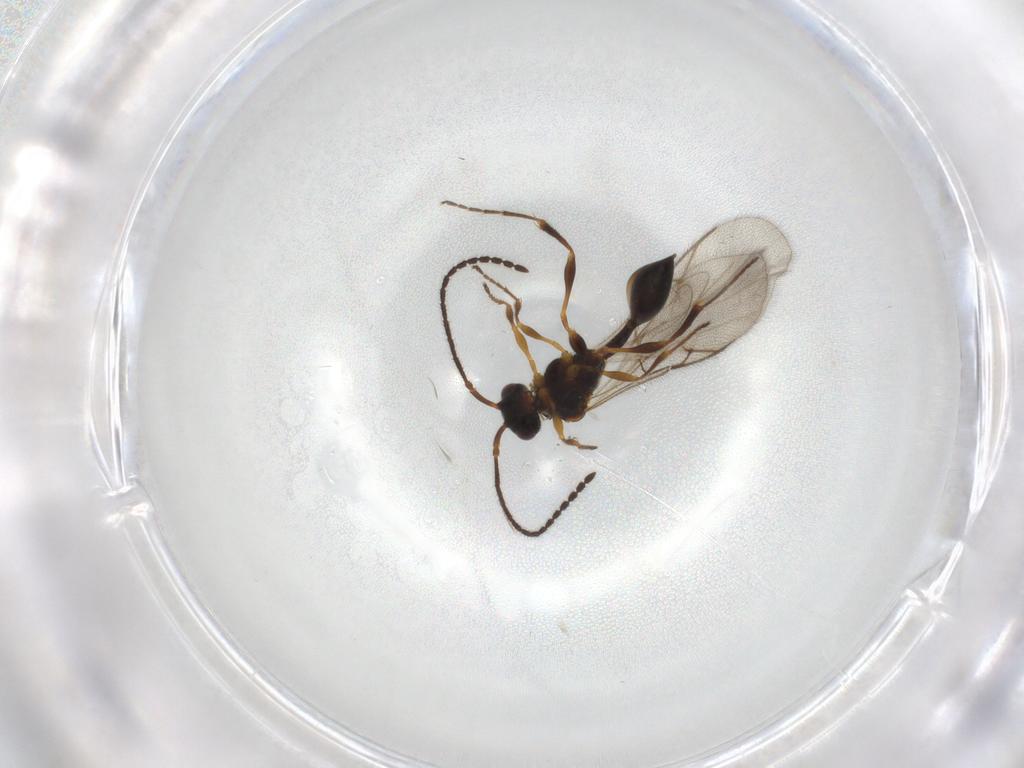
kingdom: Animalia
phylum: Arthropoda
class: Insecta
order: Hymenoptera
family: Diapriidae
